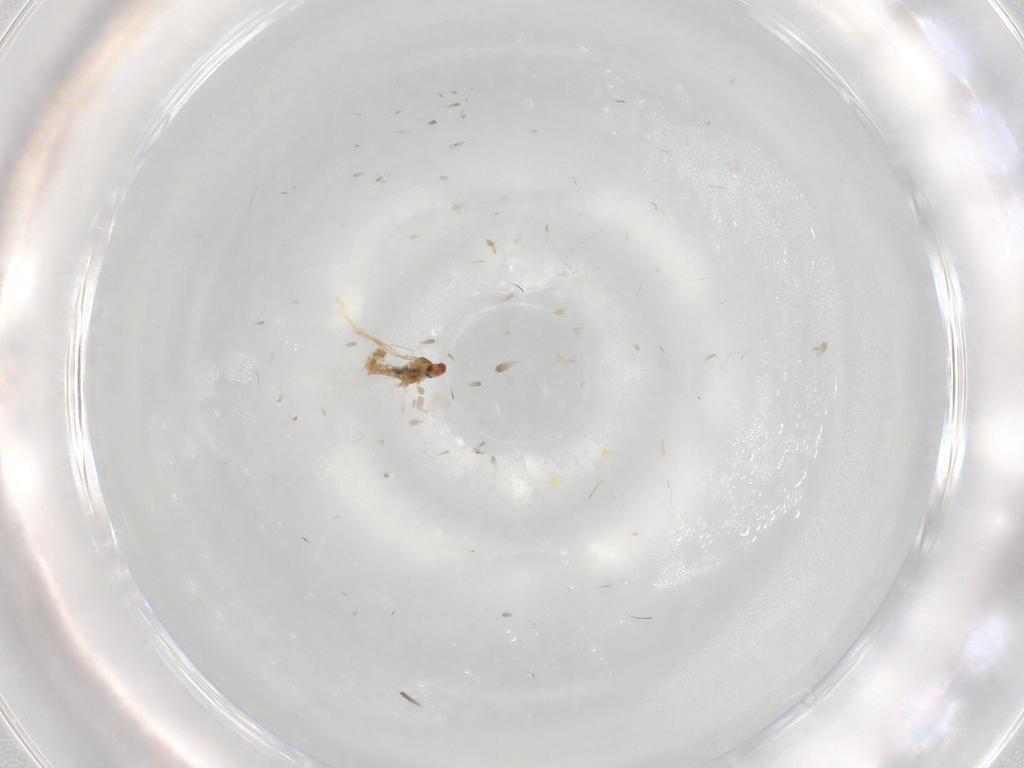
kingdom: Animalia
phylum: Arthropoda
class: Insecta
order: Diptera
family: Cecidomyiidae
